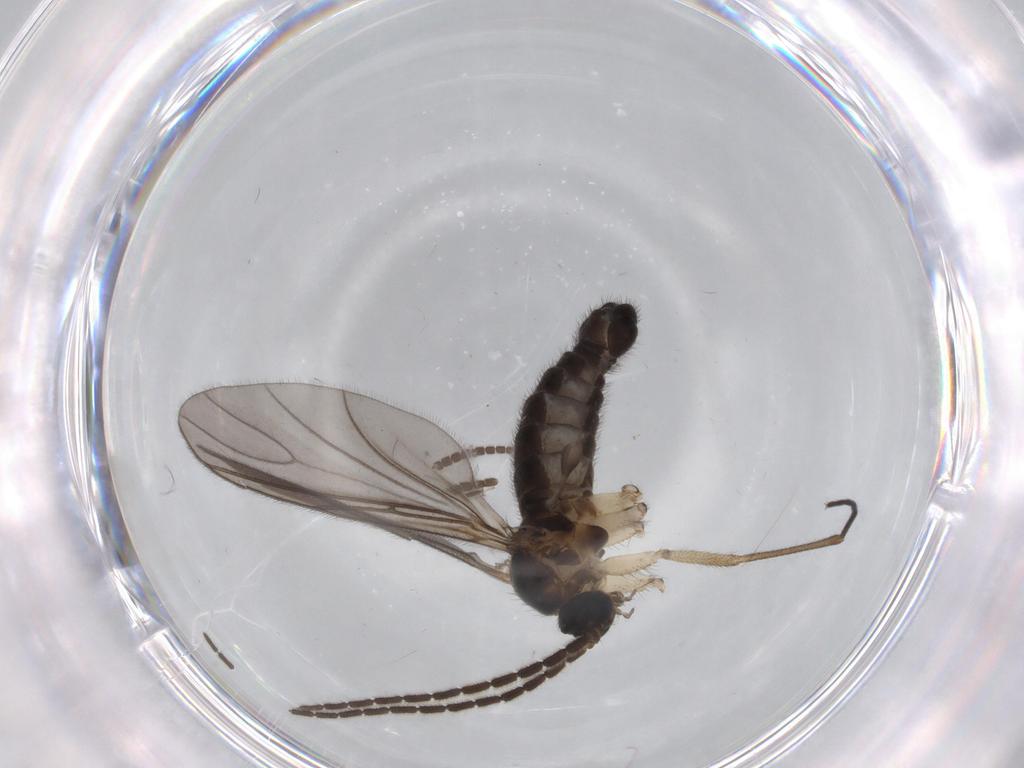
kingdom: Animalia
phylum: Arthropoda
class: Insecta
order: Diptera
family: Sciaridae
